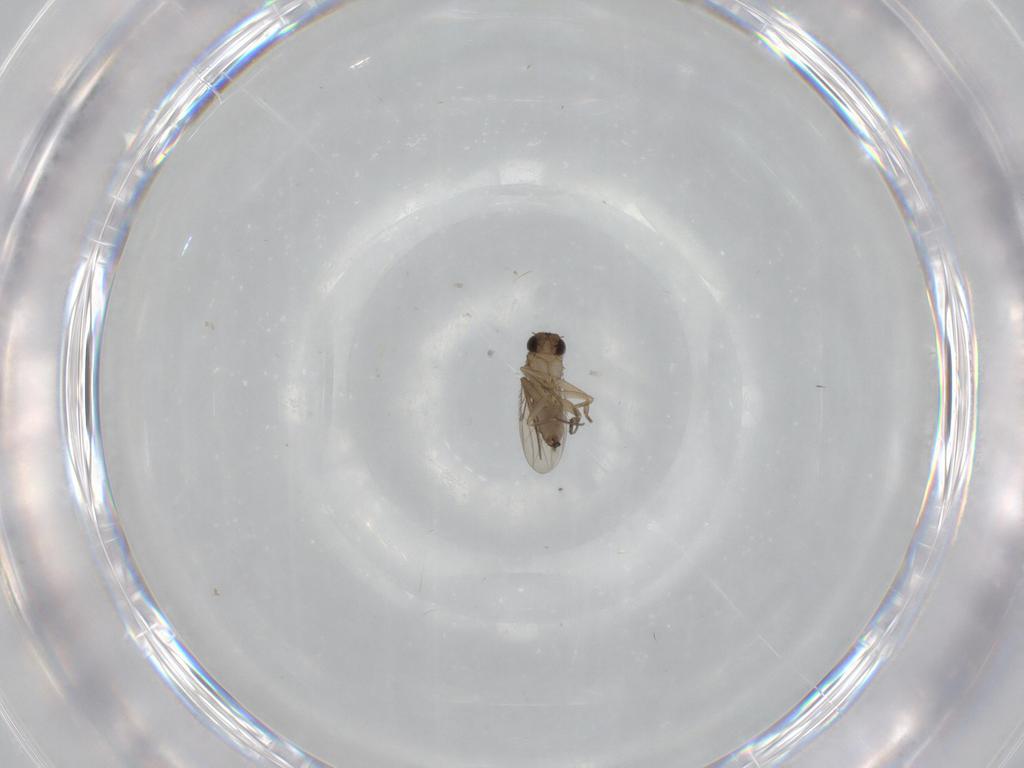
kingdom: Animalia
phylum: Arthropoda
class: Insecta
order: Diptera
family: Phoridae
